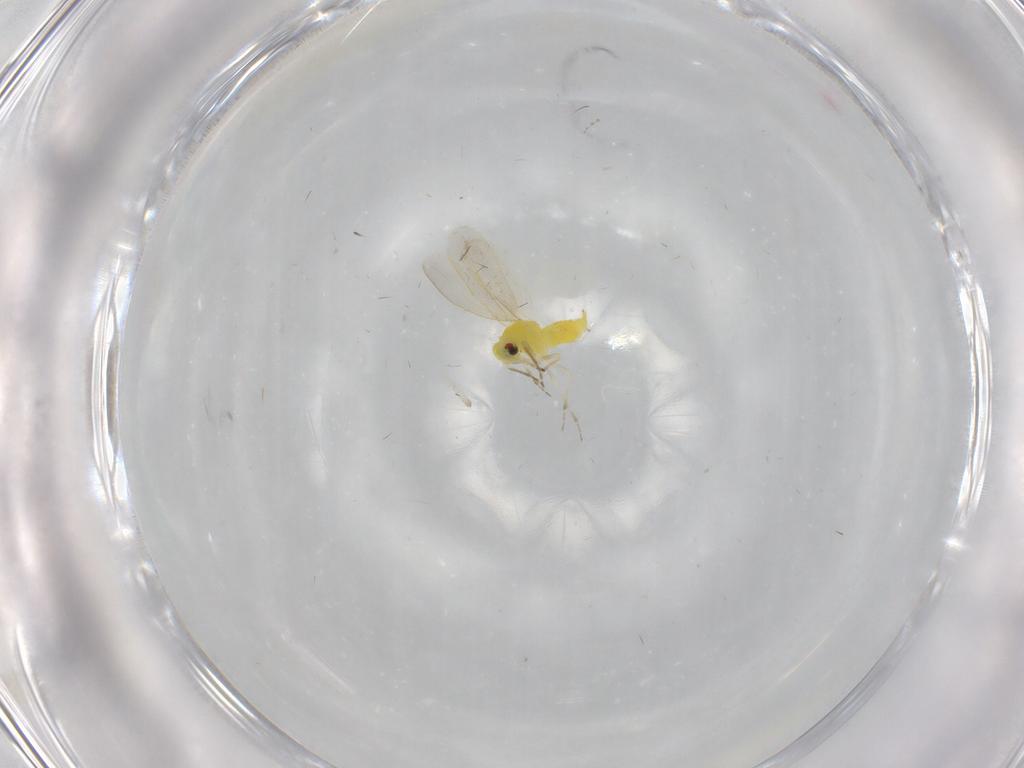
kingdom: Animalia
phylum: Arthropoda
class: Insecta
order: Hemiptera
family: Cicadellidae
